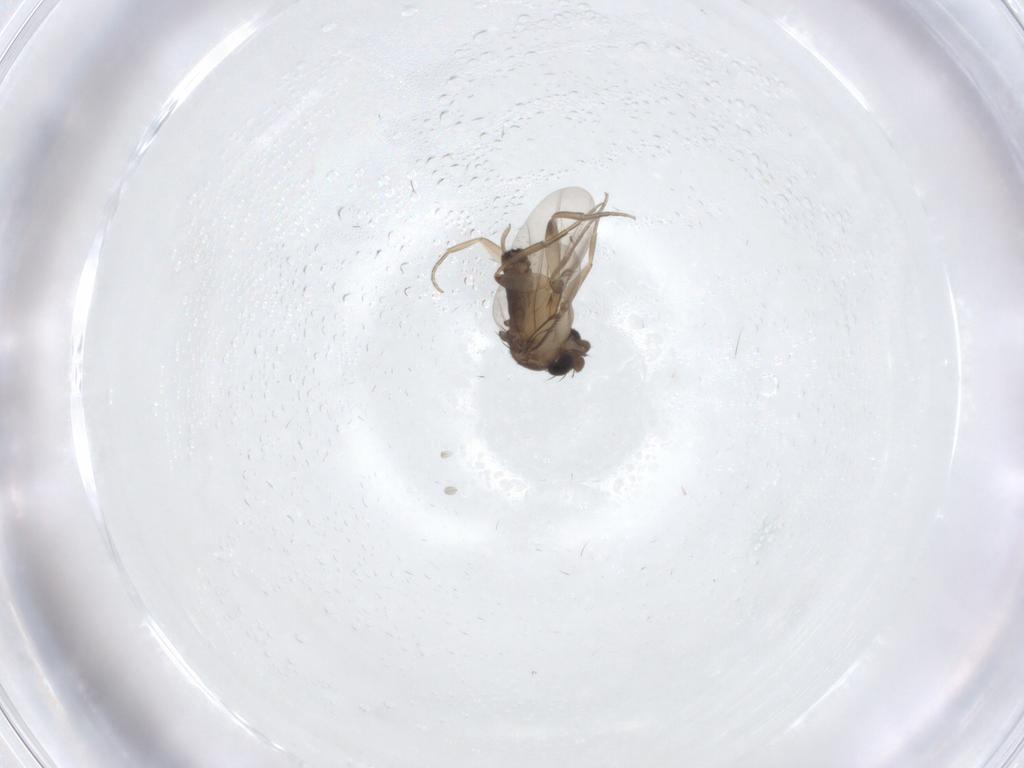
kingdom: Animalia
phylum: Arthropoda
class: Insecta
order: Diptera
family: Phoridae
